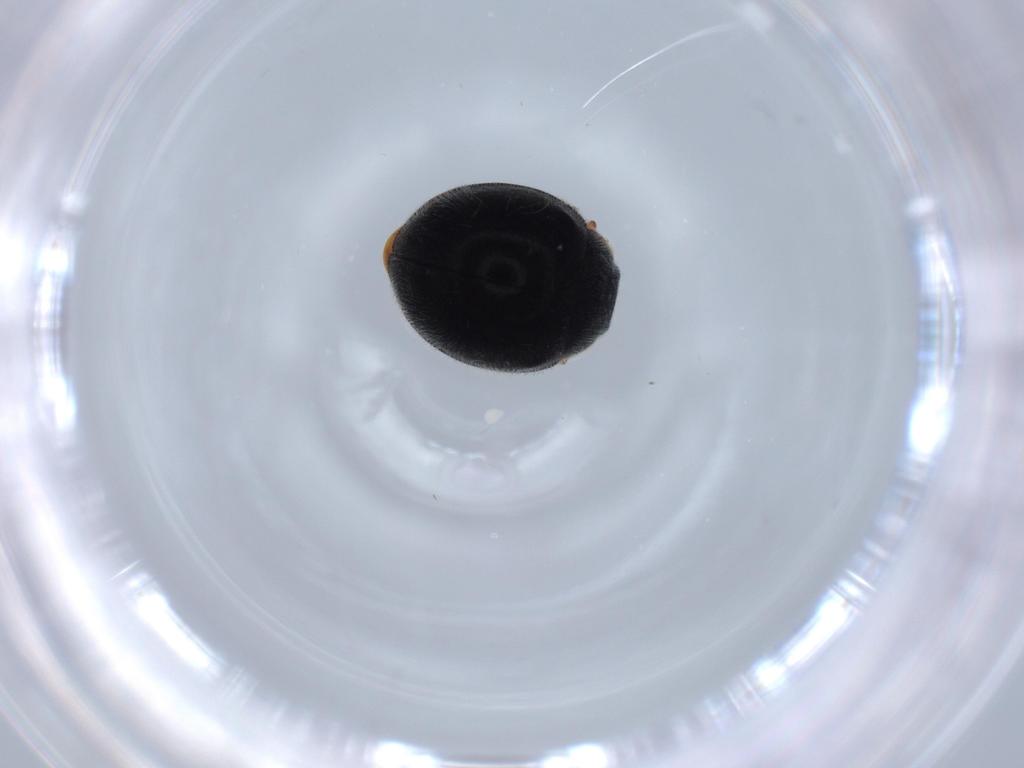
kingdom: Animalia
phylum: Arthropoda
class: Insecta
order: Coleoptera
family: Coccinellidae
